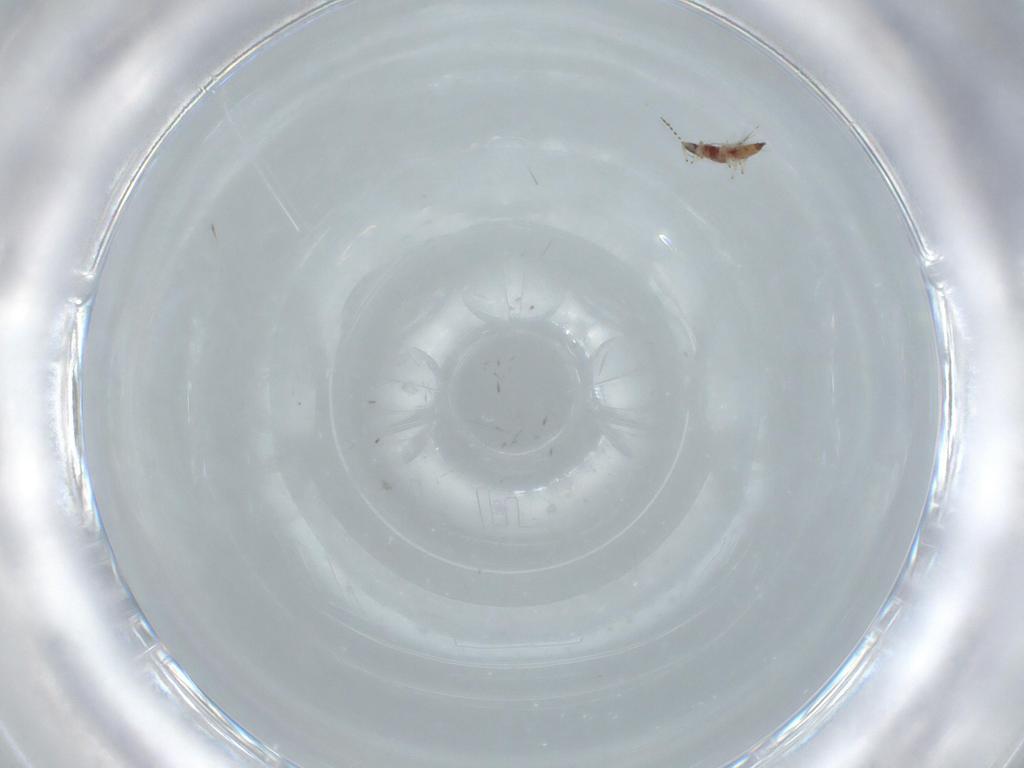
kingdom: Animalia
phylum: Arthropoda
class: Insecta
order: Thysanoptera
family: Phlaeothripidae
